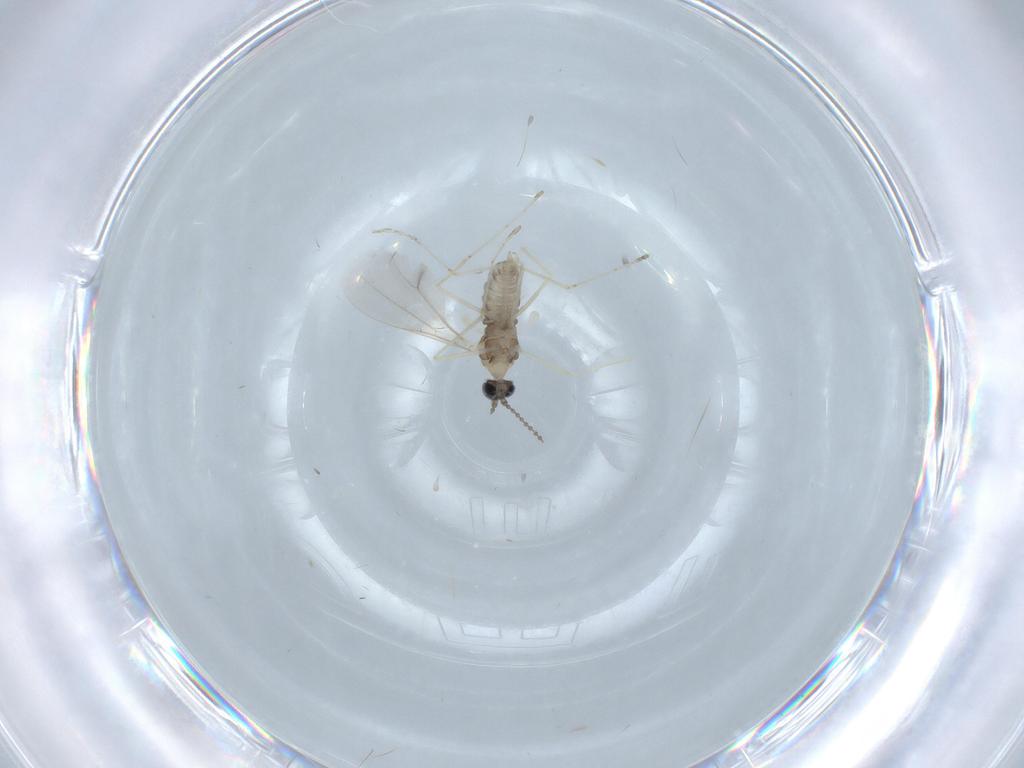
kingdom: Animalia
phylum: Arthropoda
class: Insecta
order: Diptera
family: Cecidomyiidae
